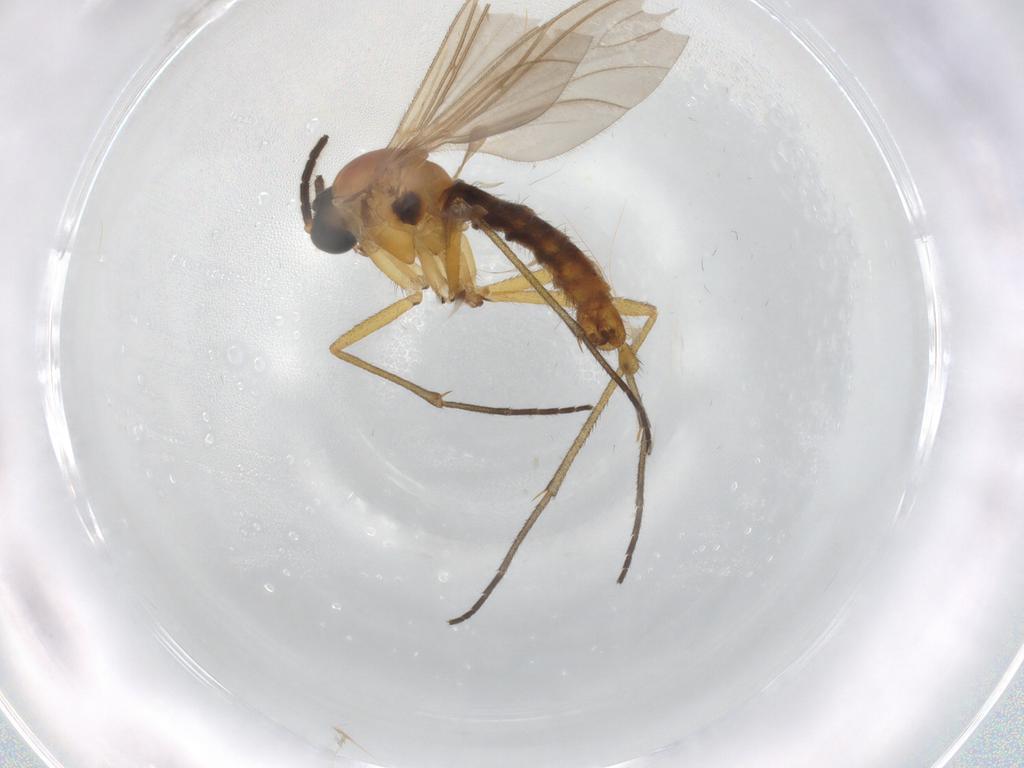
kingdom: Animalia
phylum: Arthropoda
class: Insecta
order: Diptera
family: Sciaridae
